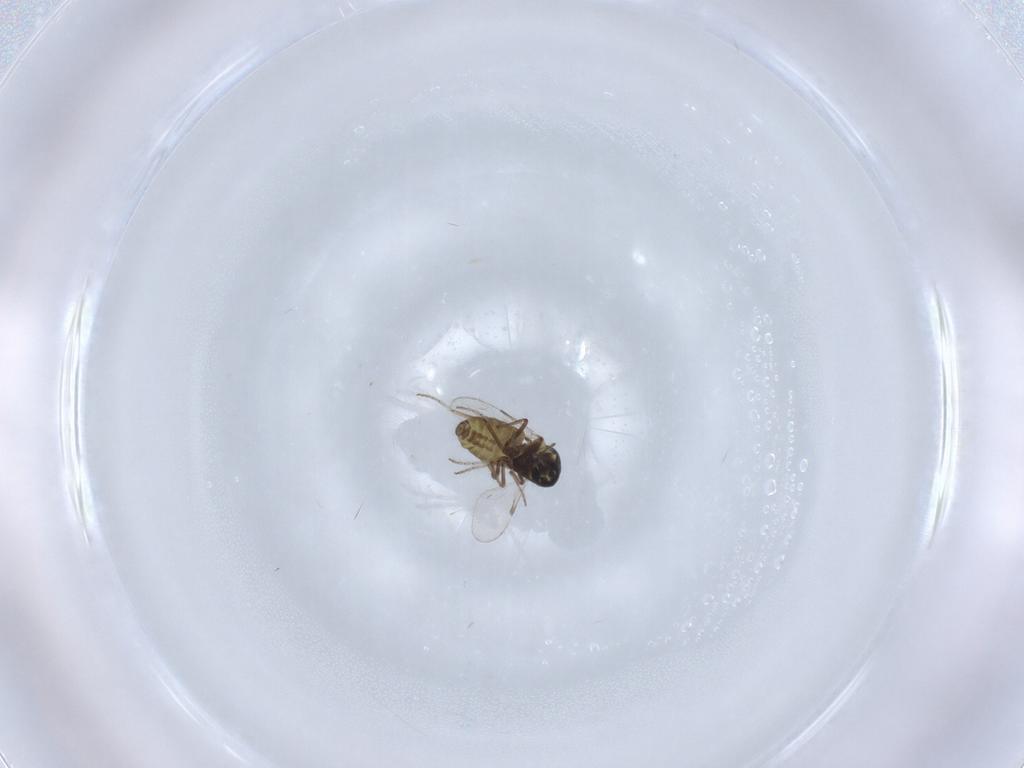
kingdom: Animalia
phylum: Arthropoda
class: Insecta
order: Diptera
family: Ceratopogonidae
